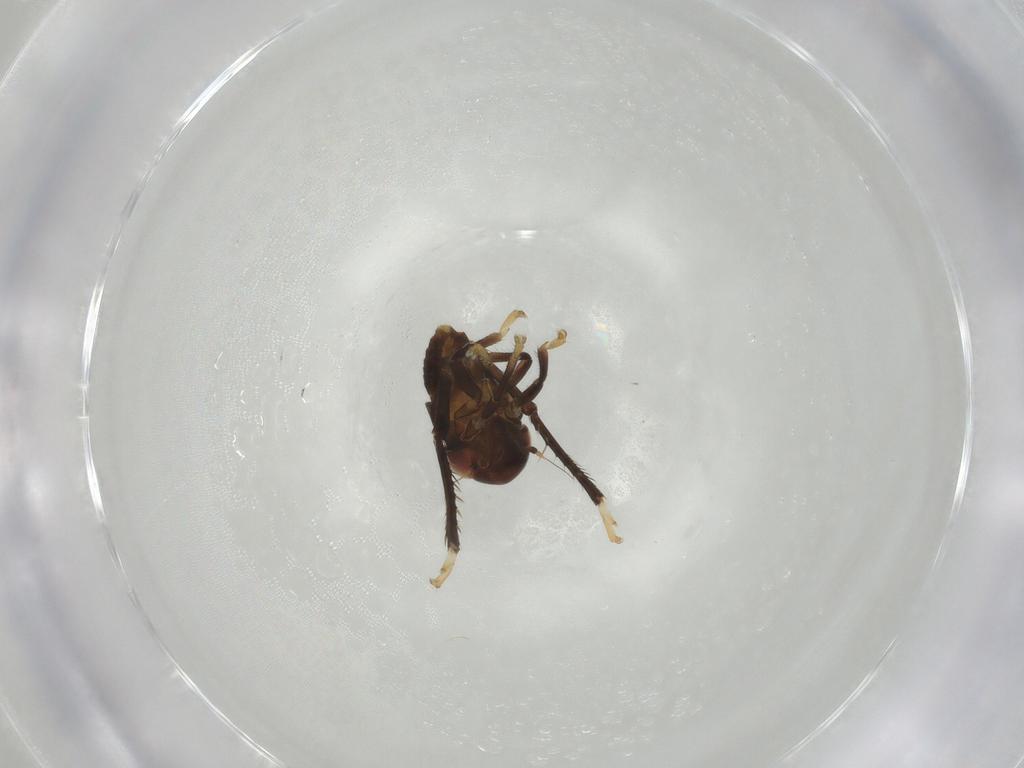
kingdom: Animalia
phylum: Arthropoda
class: Insecta
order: Hemiptera
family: Cicadellidae
